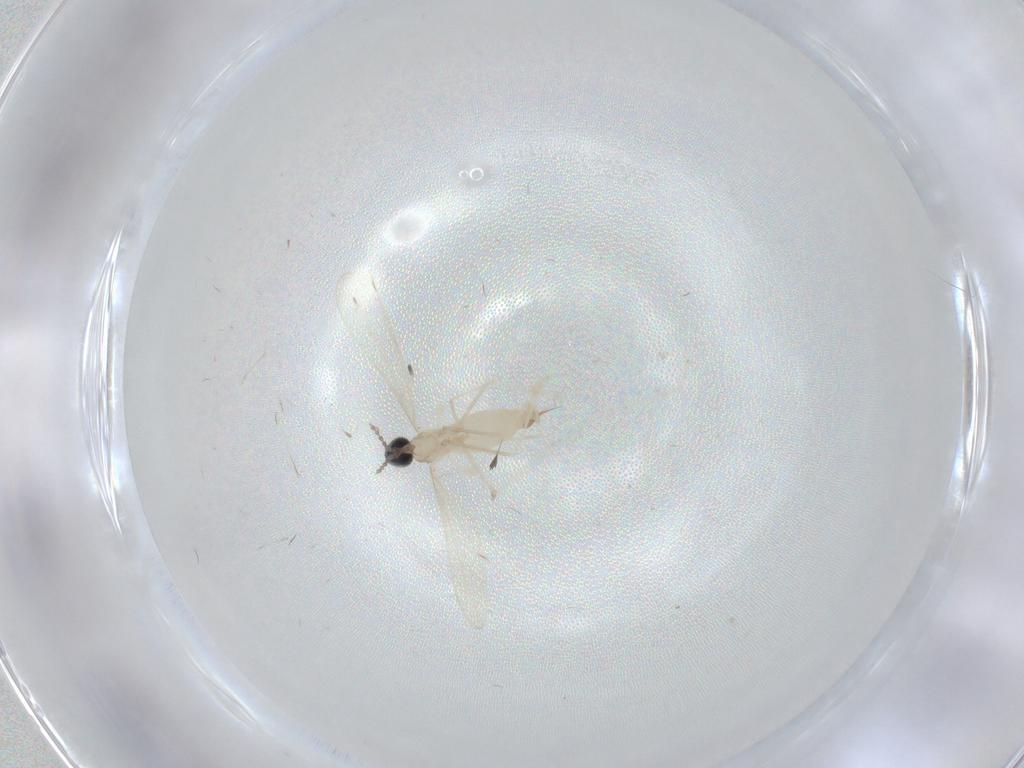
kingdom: Animalia
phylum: Arthropoda
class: Insecta
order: Diptera
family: Cecidomyiidae
